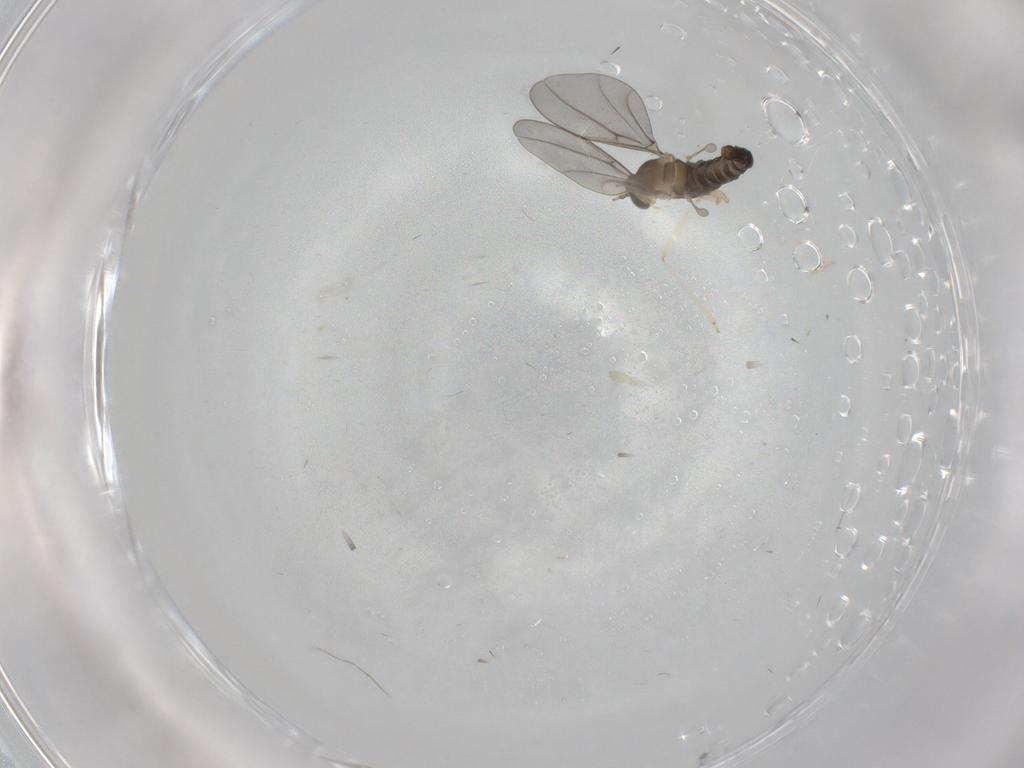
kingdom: Animalia
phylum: Arthropoda
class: Insecta
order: Diptera
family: Cecidomyiidae
